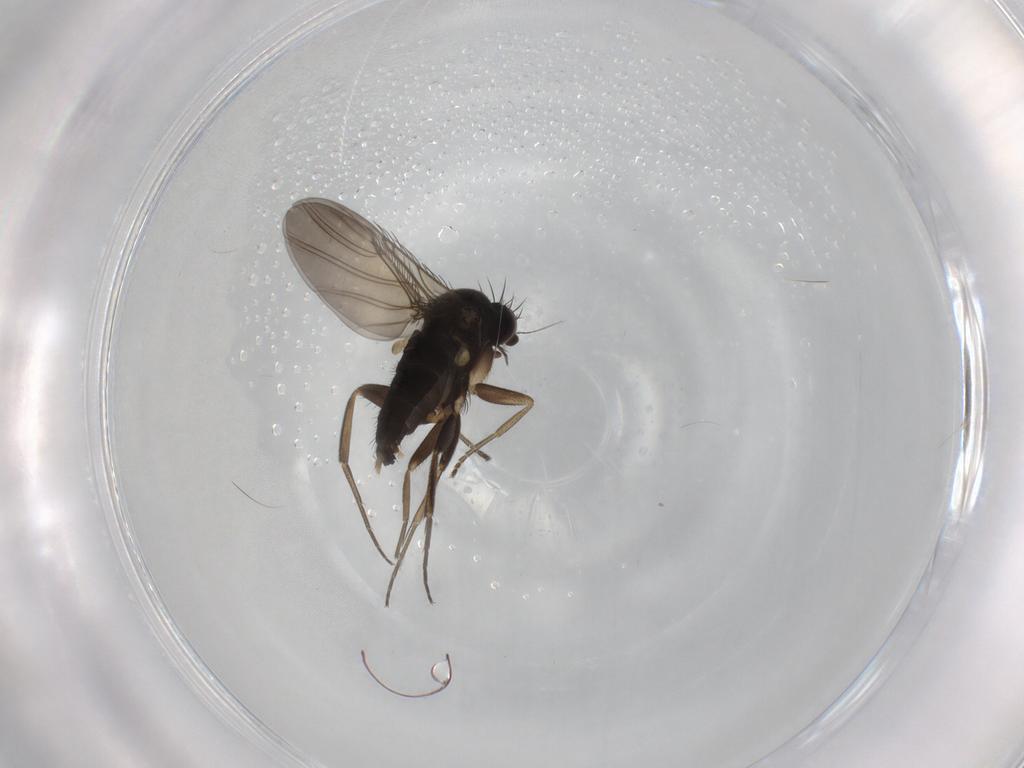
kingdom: Animalia
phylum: Arthropoda
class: Insecta
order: Diptera
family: Phoridae
